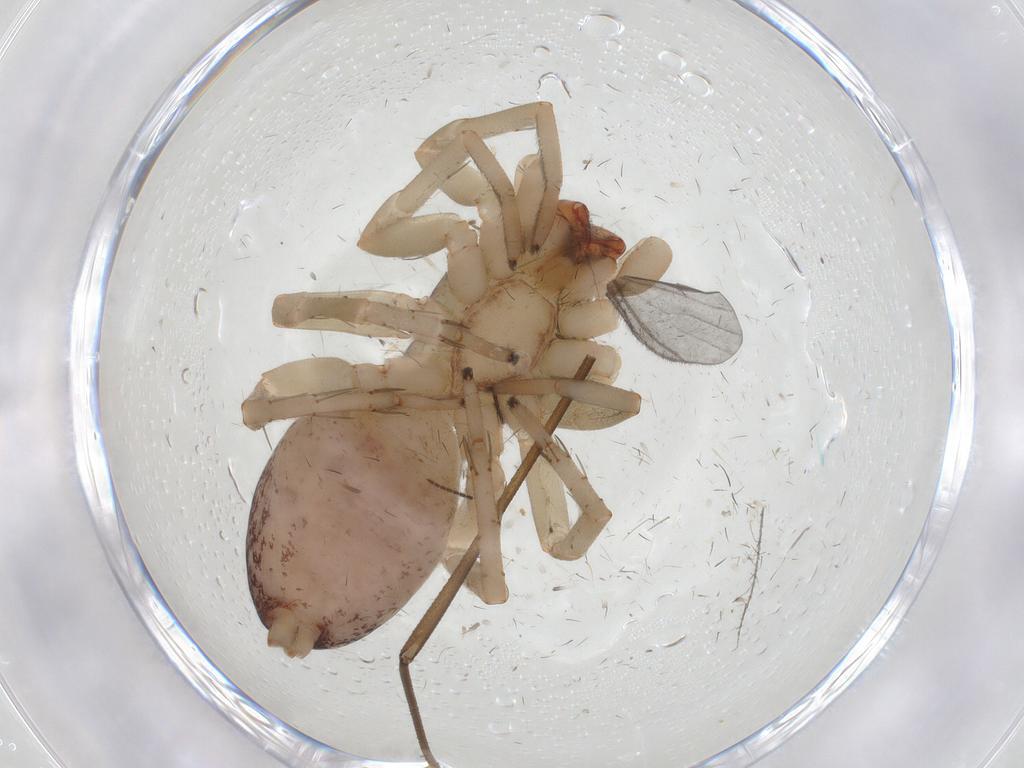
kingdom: Animalia
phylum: Arthropoda
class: Arachnida
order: Araneae
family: Clubionidae
